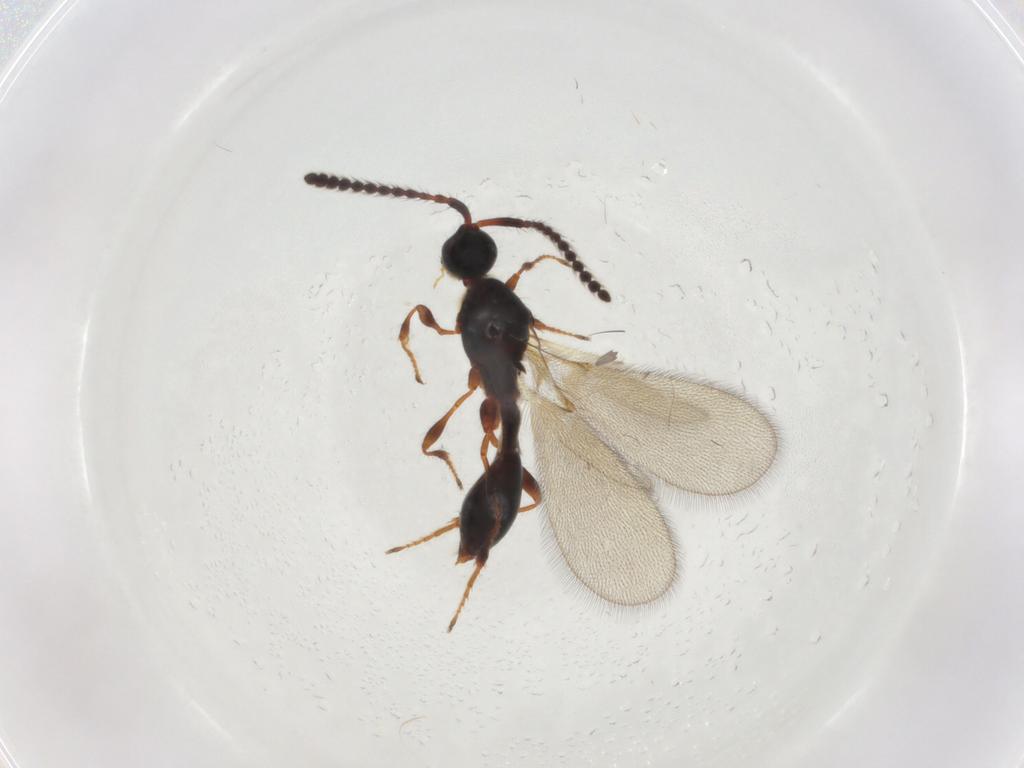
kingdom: Animalia
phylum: Arthropoda
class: Insecta
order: Hymenoptera
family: Diapriidae
